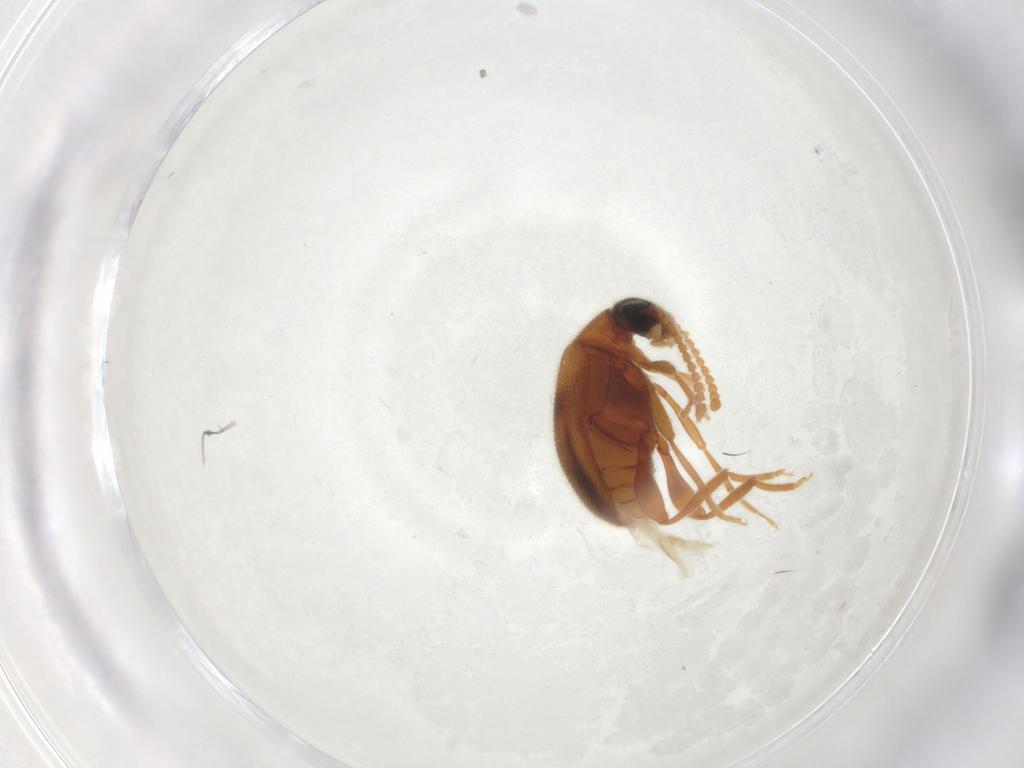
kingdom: Animalia
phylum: Arthropoda
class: Insecta
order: Coleoptera
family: Aderidae
